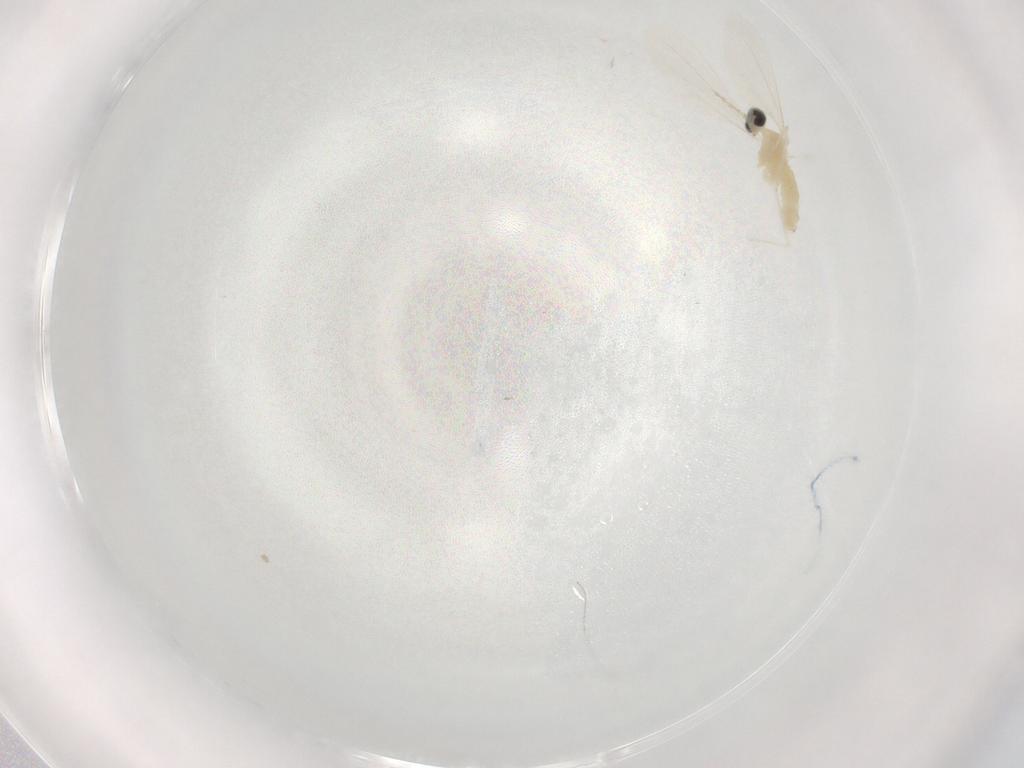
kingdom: Animalia
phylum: Arthropoda
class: Insecta
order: Diptera
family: Cecidomyiidae
